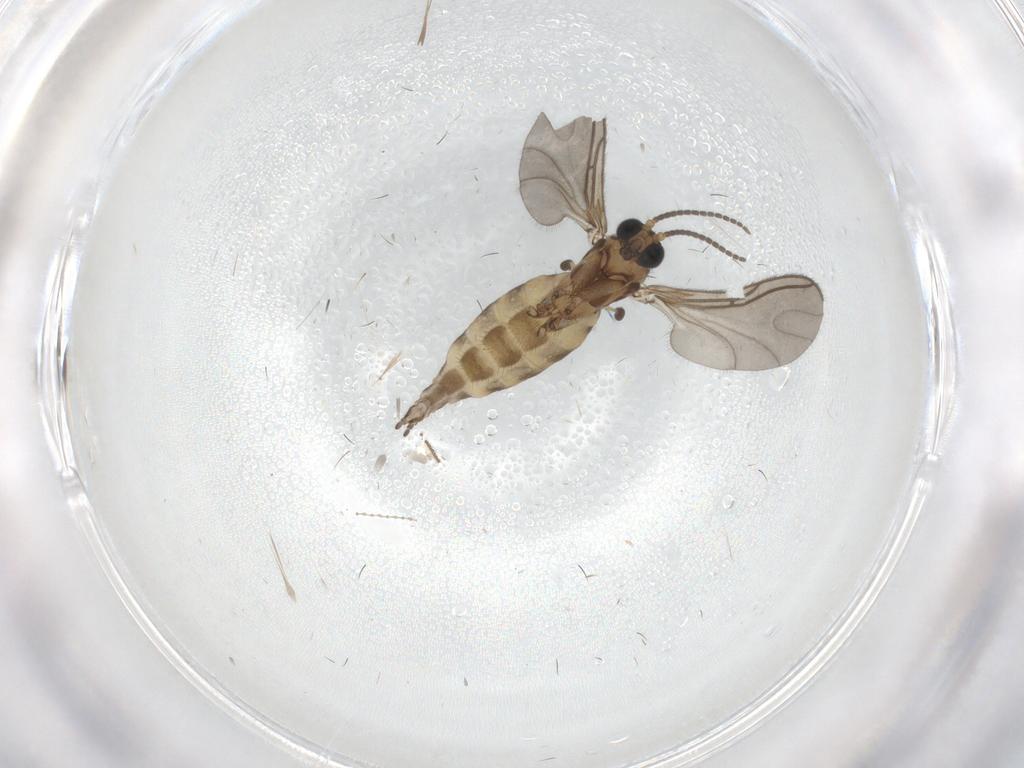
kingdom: Animalia
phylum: Arthropoda
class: Insecta
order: Diptera
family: Sciaridae
